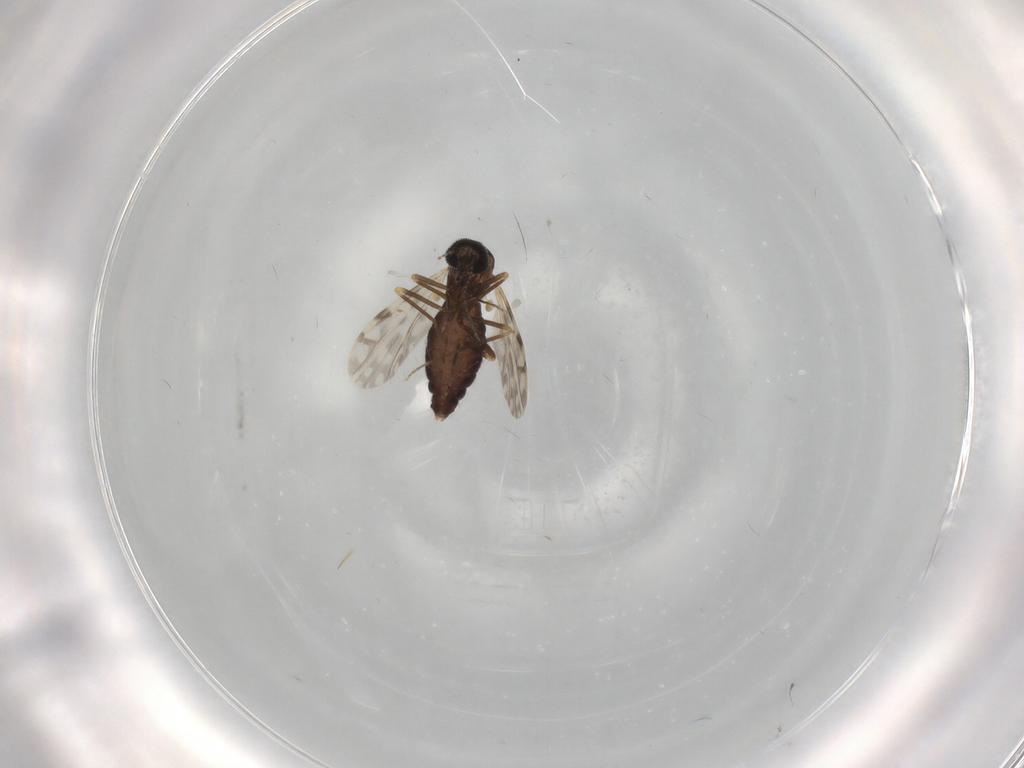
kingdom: Animalia
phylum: Arthropoda
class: Insecta
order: Diptera
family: Ceratopogonidae
